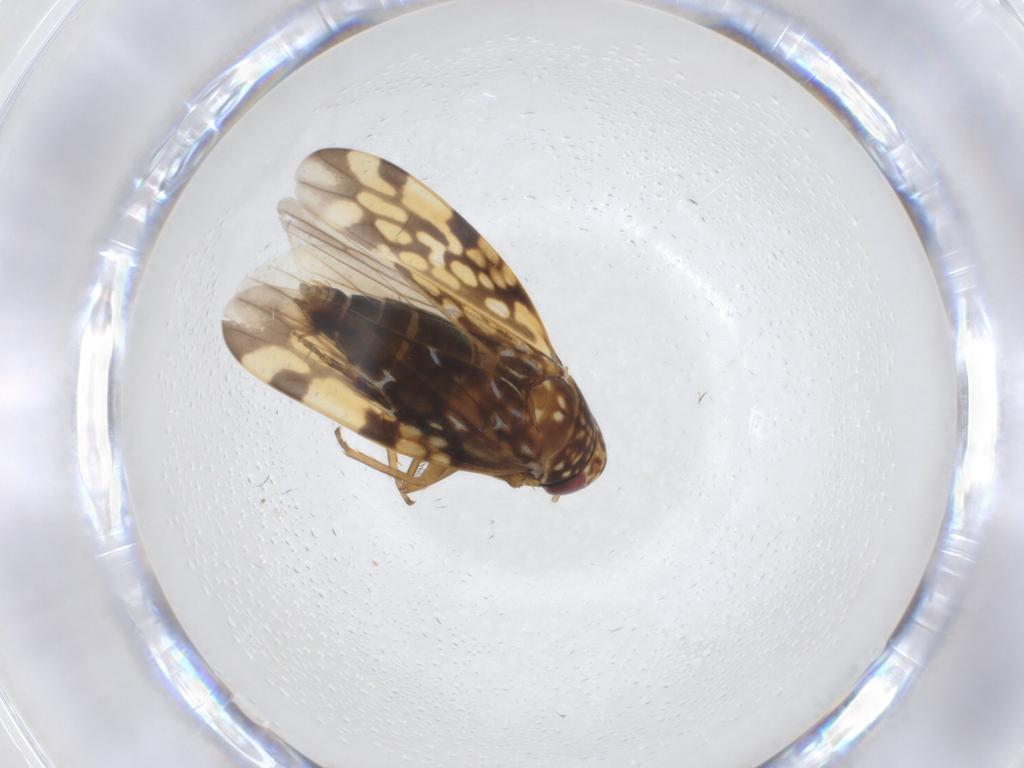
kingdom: Animalia
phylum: Arthropoda
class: Insecta
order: Hemiptera
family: Cicadellidae
